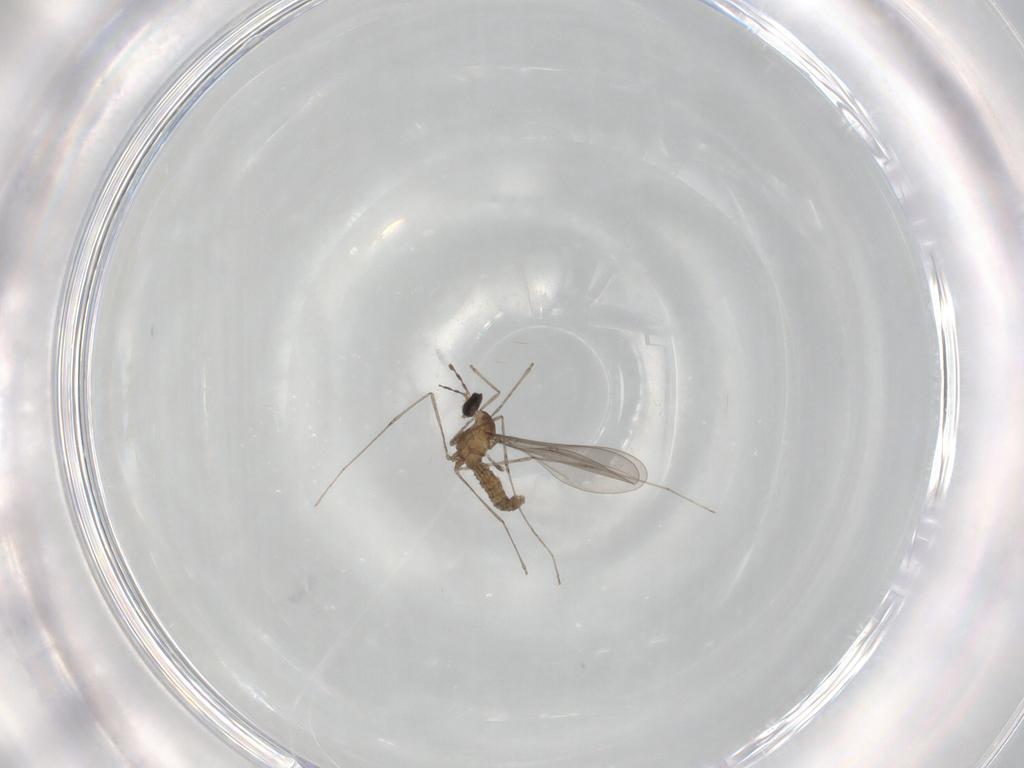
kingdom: Animalia
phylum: Arthropoda
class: Insecta
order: Diptera
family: Cecidomyiidae
